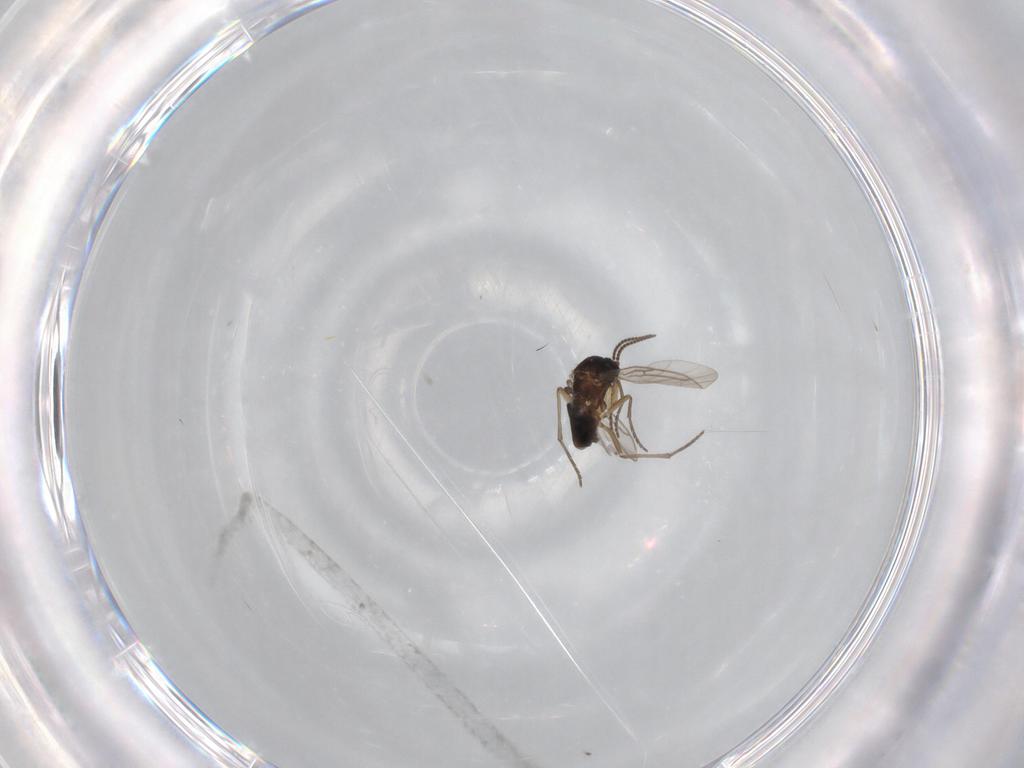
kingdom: Animalia
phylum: Arthropoda
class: Insecta
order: Diptera
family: Sciaridae
